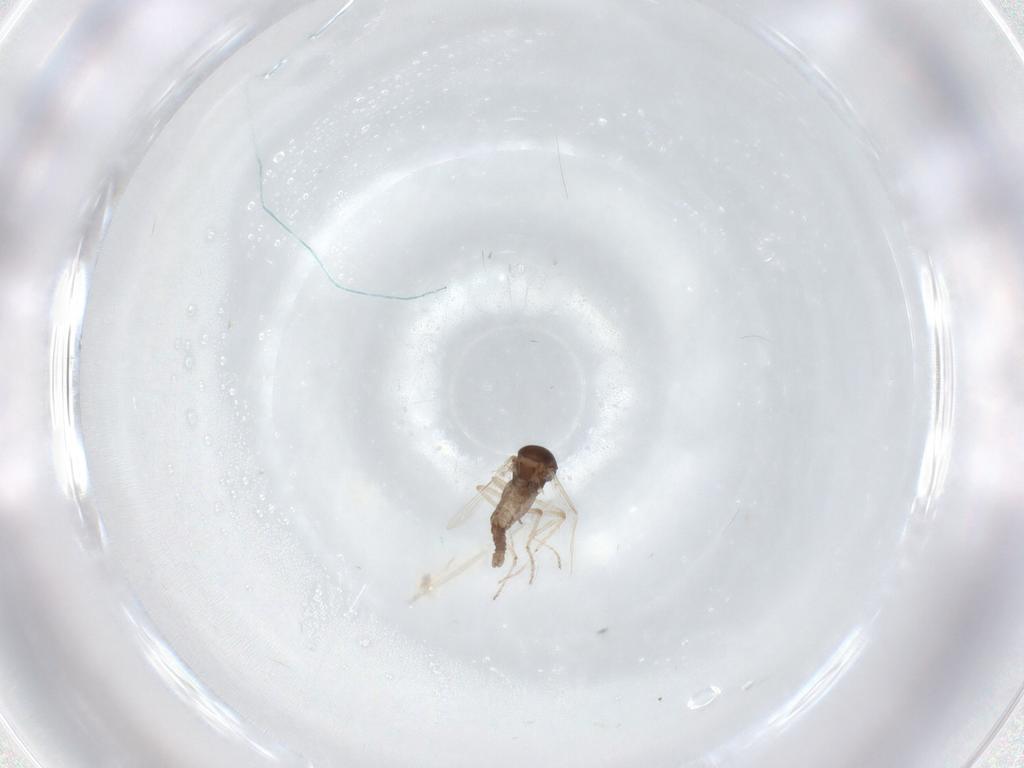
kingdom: Animalia
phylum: Arthropoda
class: Insecta
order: Diptera
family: Ceratopogonidae
